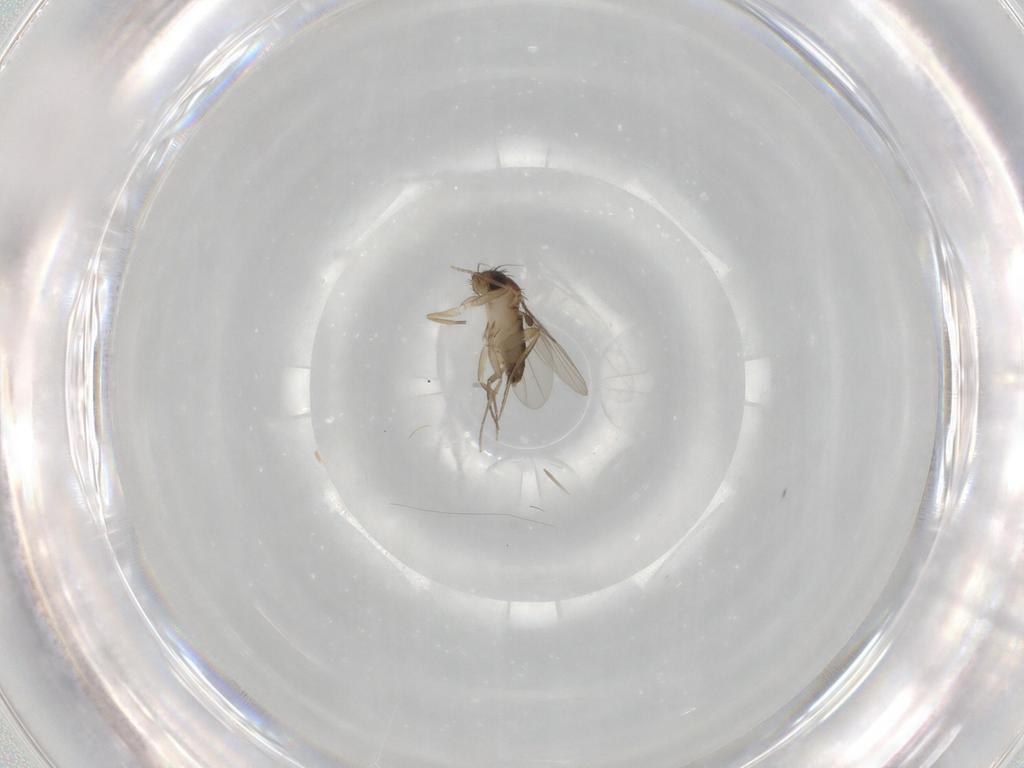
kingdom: Animalia
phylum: Arthropoda
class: Insecta
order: Diptera
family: Phoridae
